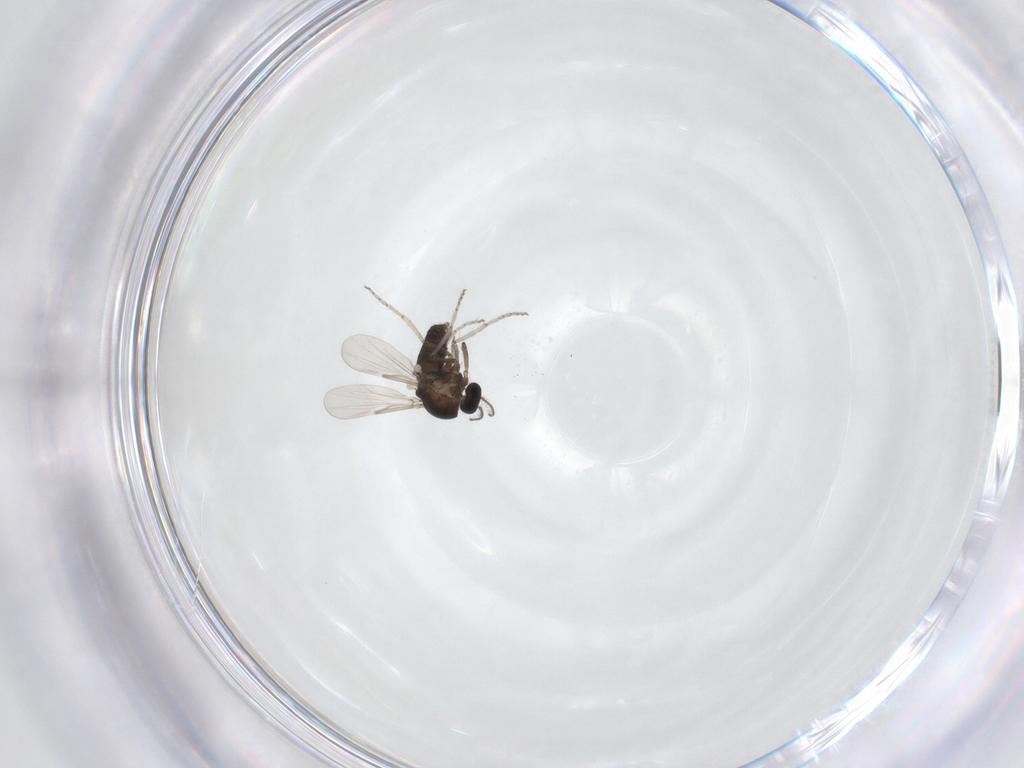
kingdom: Animalia
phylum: Arthropoda
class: Insecta
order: Diptera
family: Ceratopogonidae
